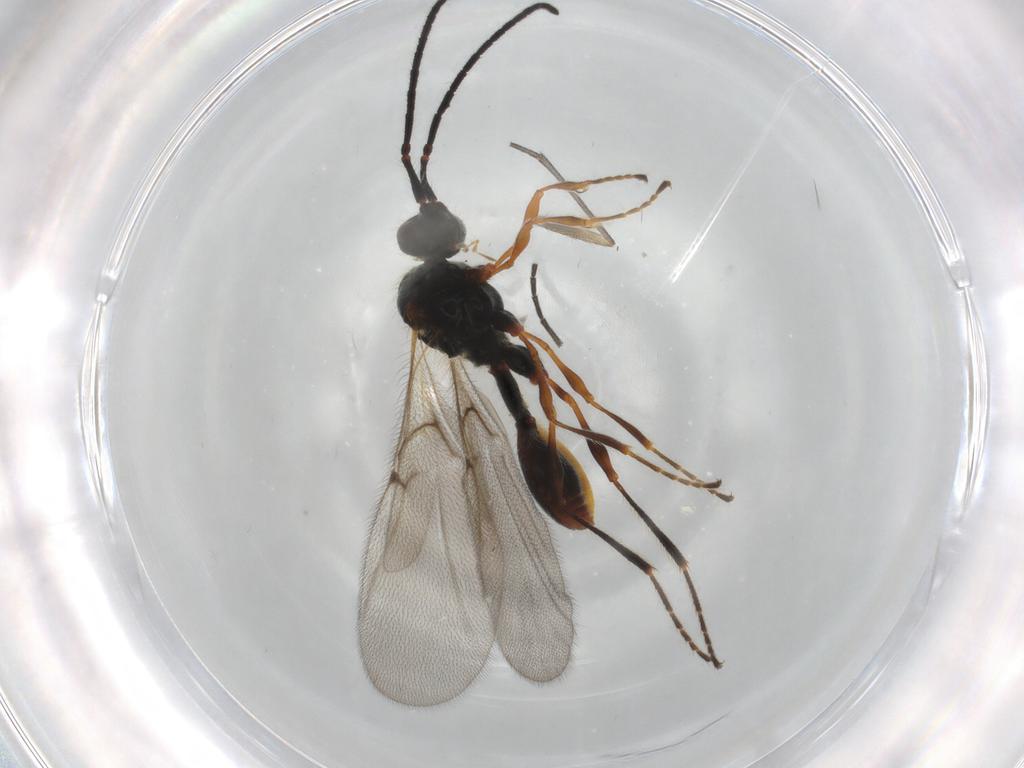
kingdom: Animalia
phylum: Arthropoda
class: Insecta
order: Hymenoptera
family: Diapriidae
